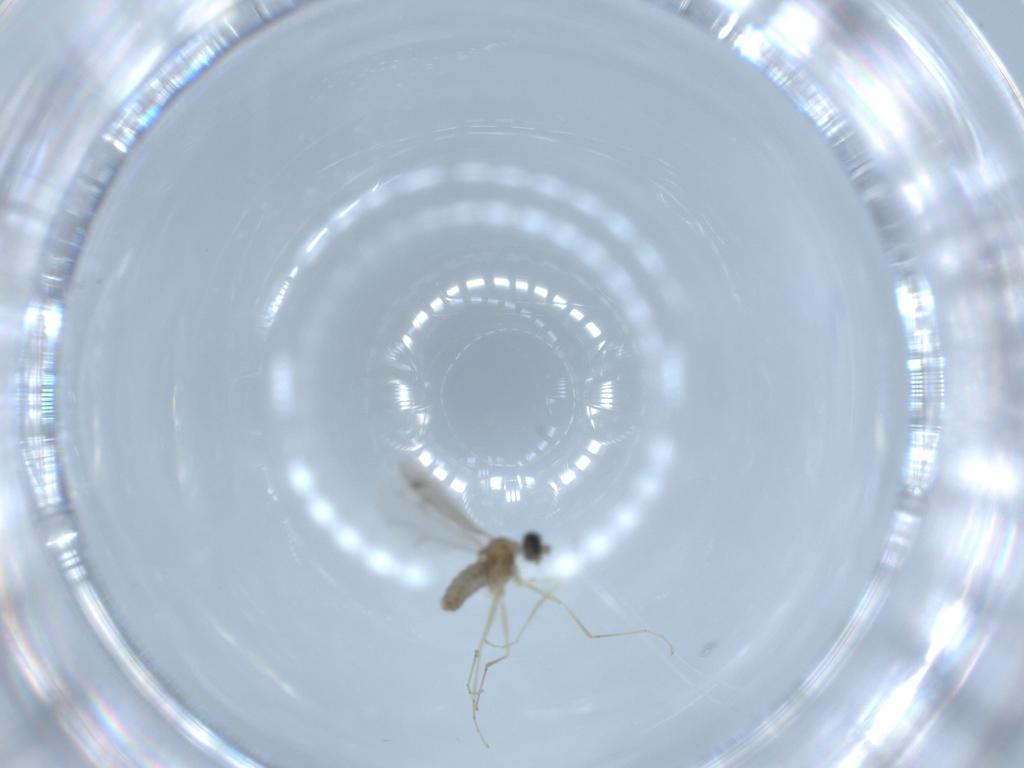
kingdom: Animalia
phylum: Arthropoda
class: Insecta
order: Diptera
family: Cecidomyiidae
